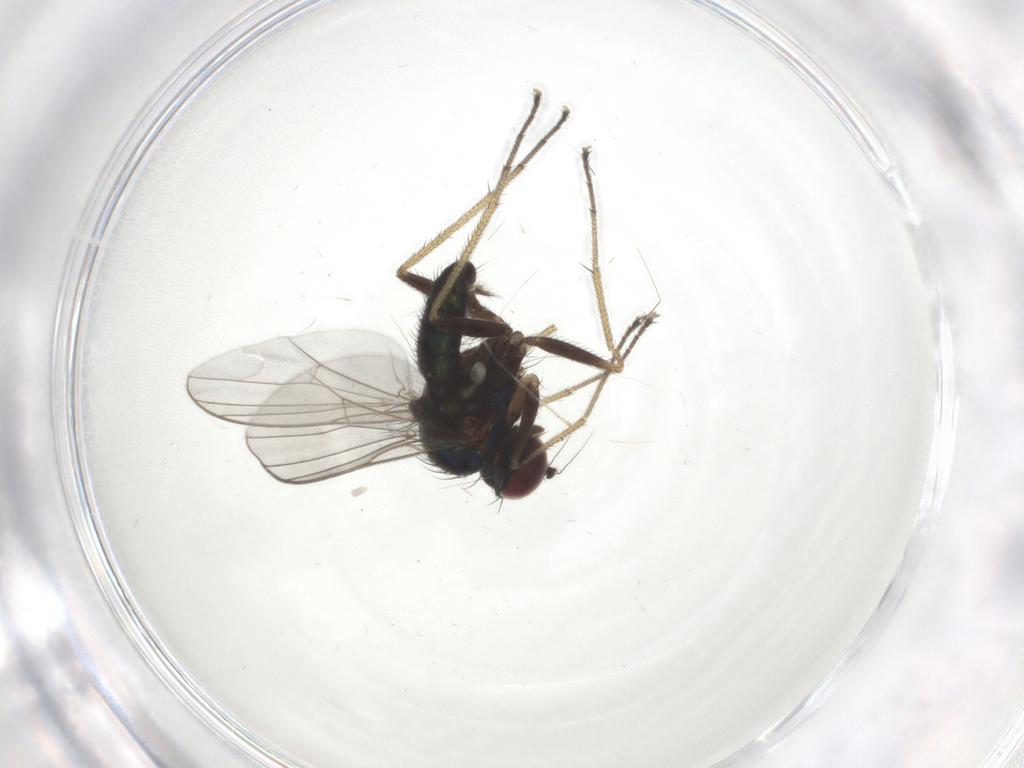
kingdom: Animalia
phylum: Arthropoda
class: Insecta
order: Diptera
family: Dolichopodidae
